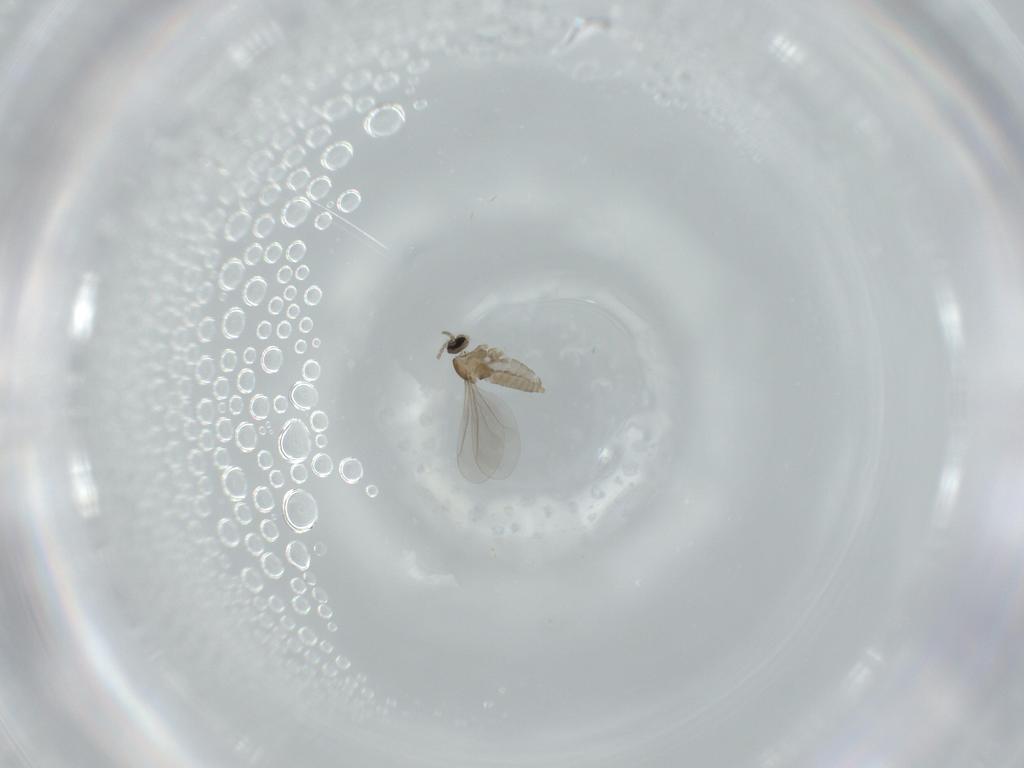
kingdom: Animalia
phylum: Arthropoda
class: Insecta
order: Diptera
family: Cecidomyiidae
